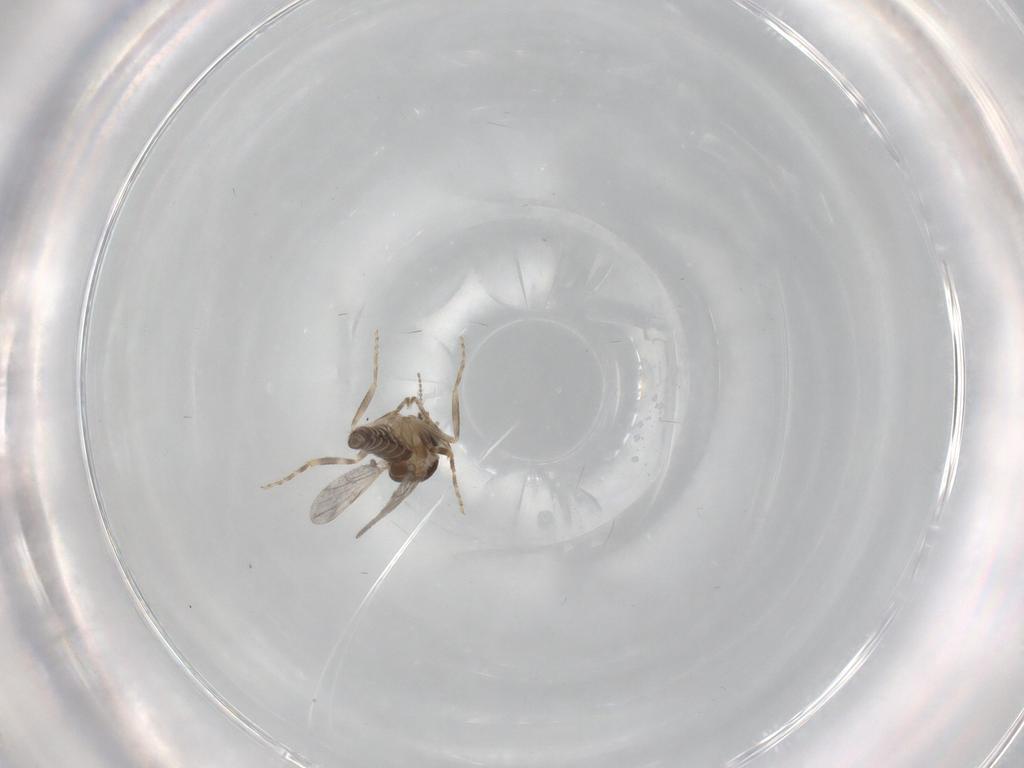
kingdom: Animalia
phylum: Arthropoda
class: Insecta
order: Diptera
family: Ceratopogonidae
